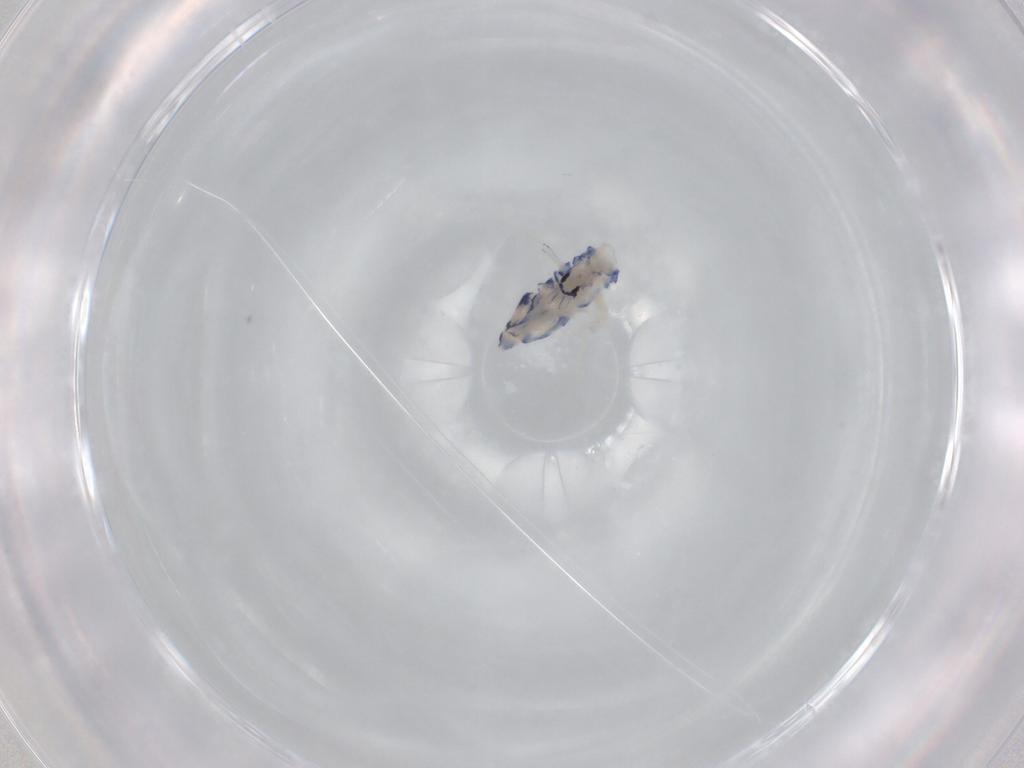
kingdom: Animalia
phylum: Arthropoda
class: Collembola
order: Entomobryomorpha
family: Entomobryidae
